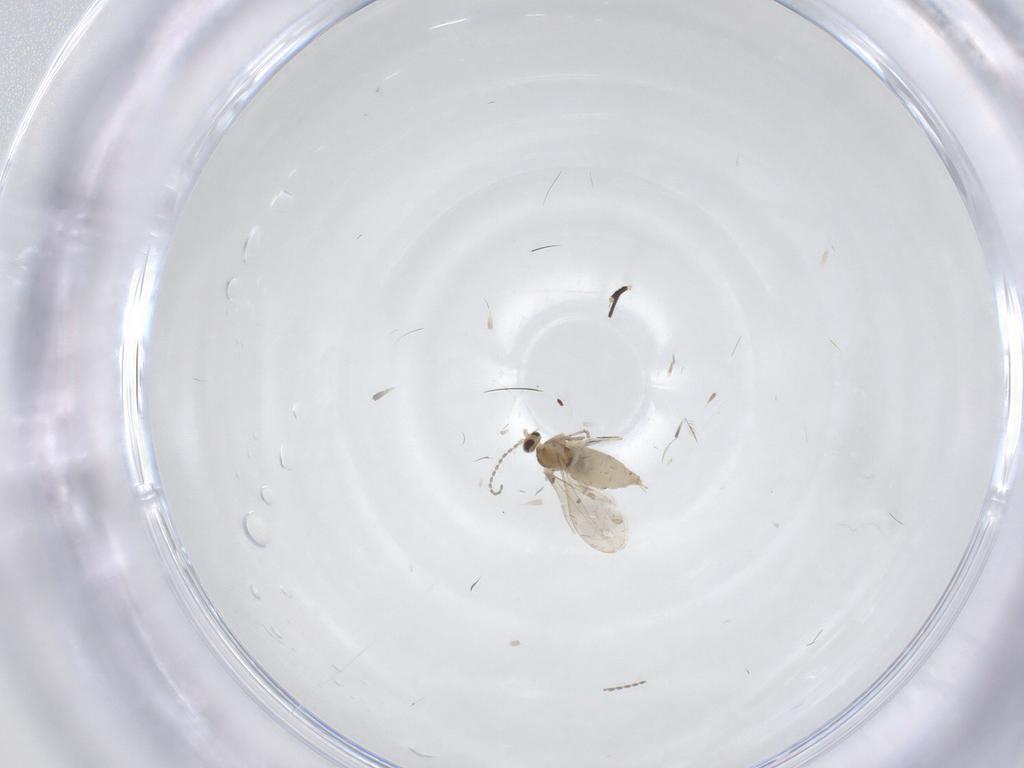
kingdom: Animalia
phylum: Arthropoda
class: Insecta
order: Diptera
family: Cecidomyiidae
